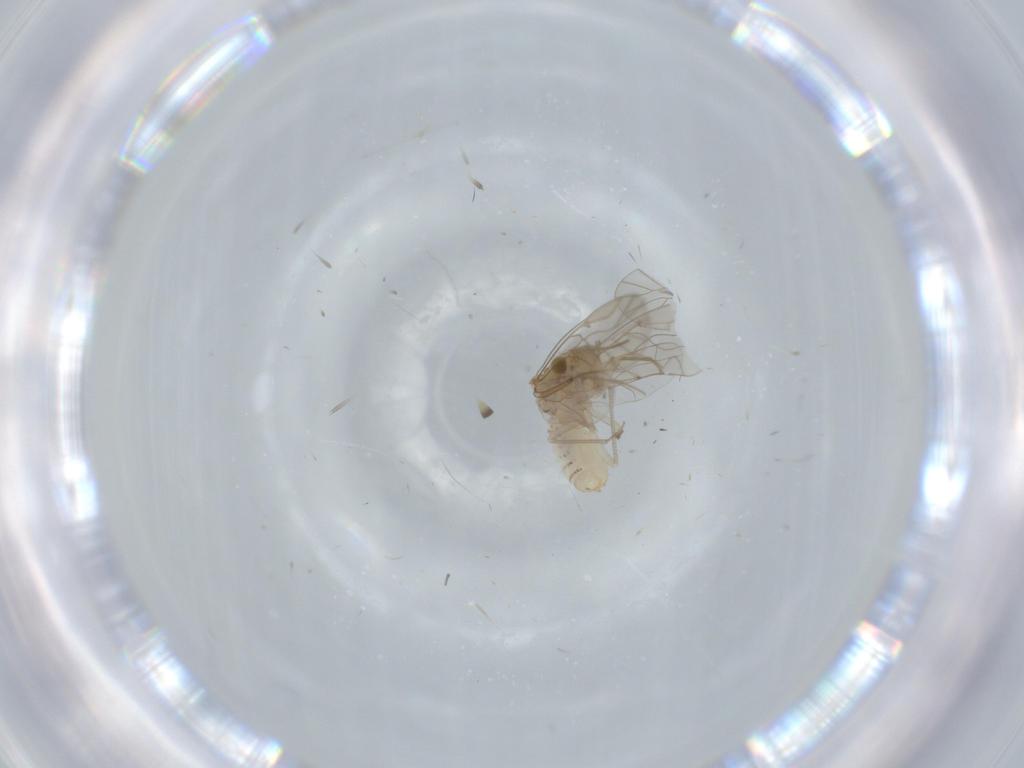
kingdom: Animalia
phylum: Arthropoda
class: Insecta
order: Psocodea
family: Lachesillidae
